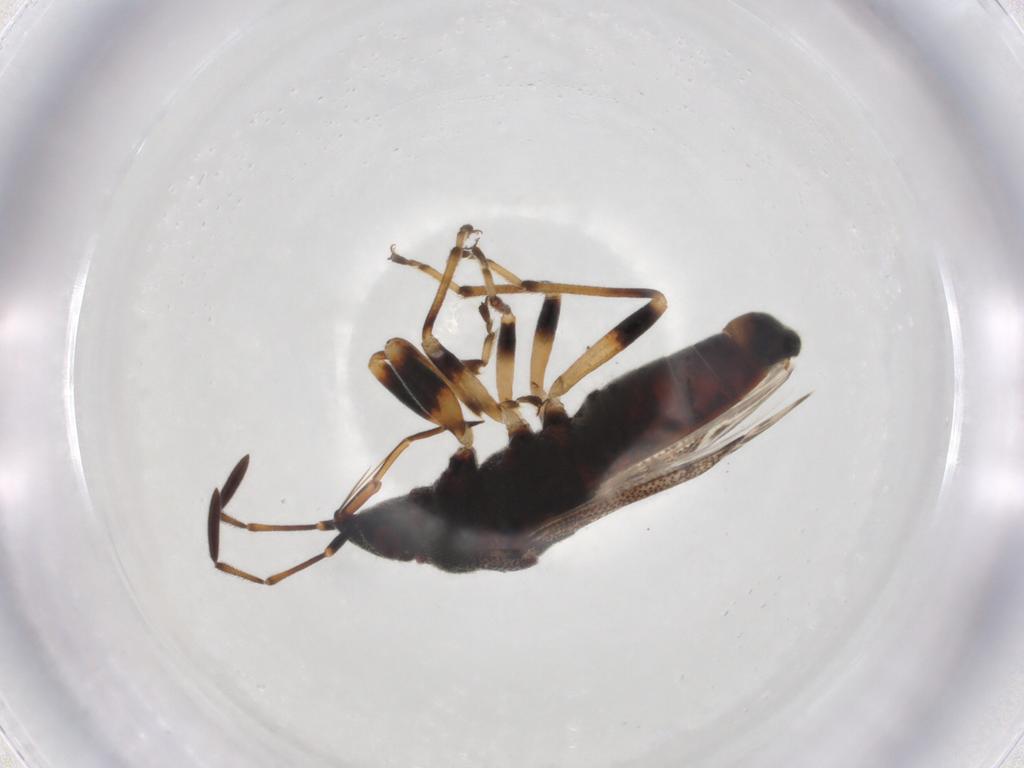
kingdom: Animalia
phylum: Arthropoda
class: Insecta
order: Hemiptera
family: Rhyparochromidae
